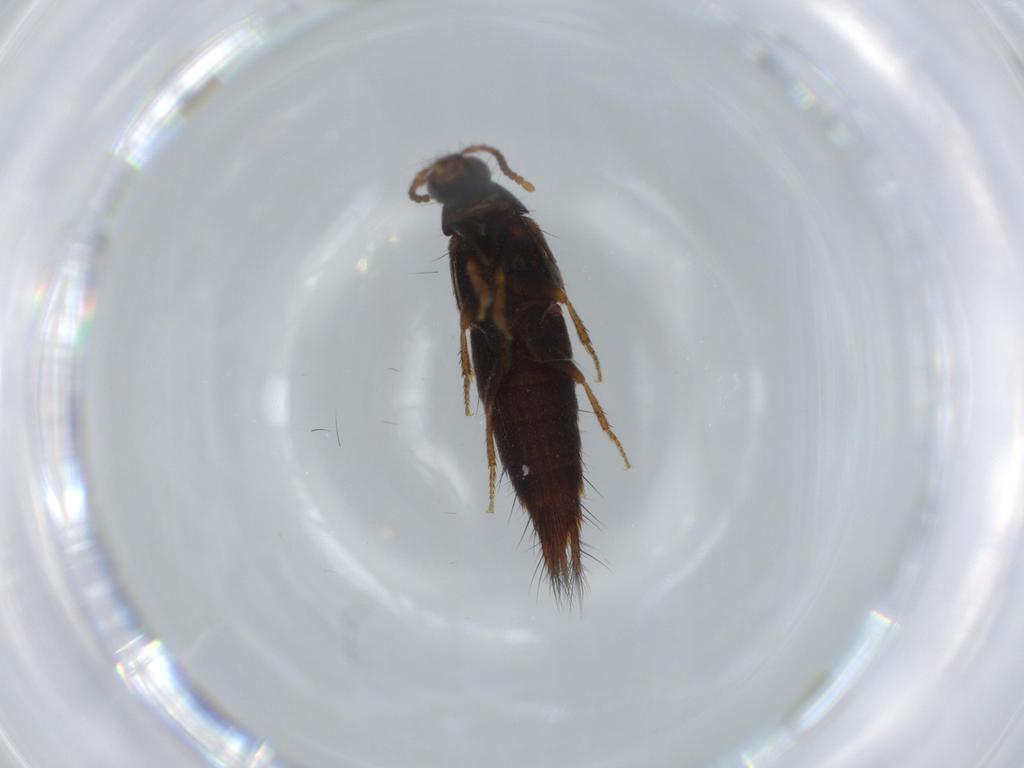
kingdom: Animalia
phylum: Arthropoda
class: Insecta
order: Coleoptera
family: Staphylinidae
